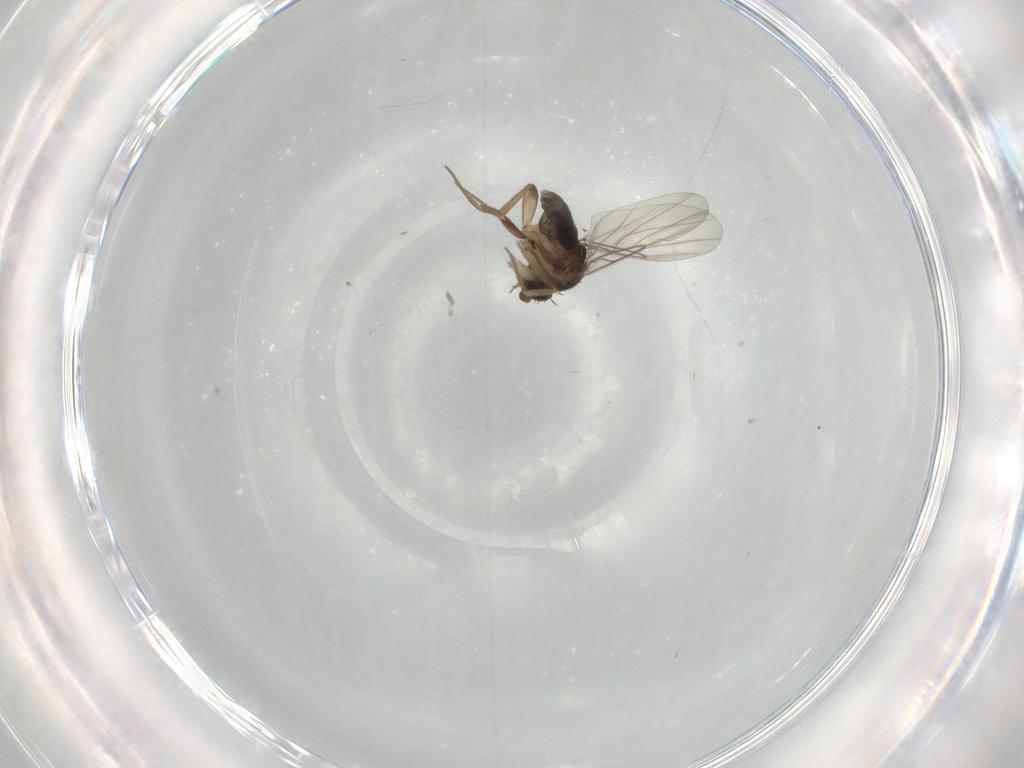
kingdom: Animalia
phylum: Arthropoda
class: Insecta
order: Diptera
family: Phoridae
